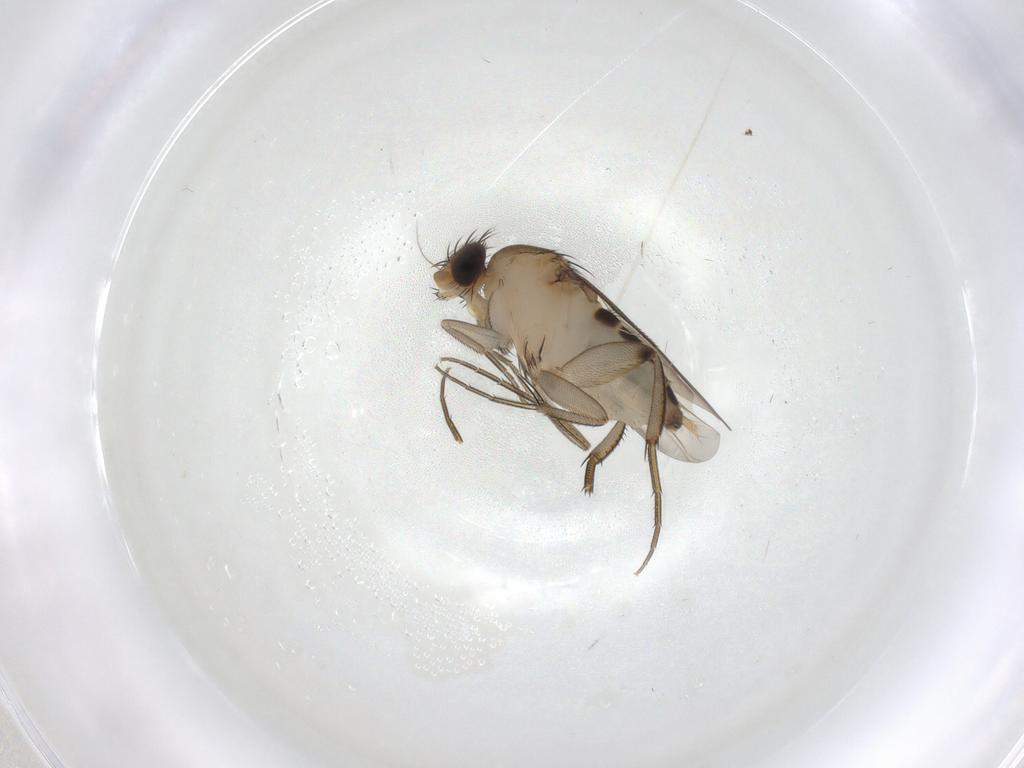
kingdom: Animalia
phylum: Arthropoda
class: Insecta
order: Diptera
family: Phoridae
